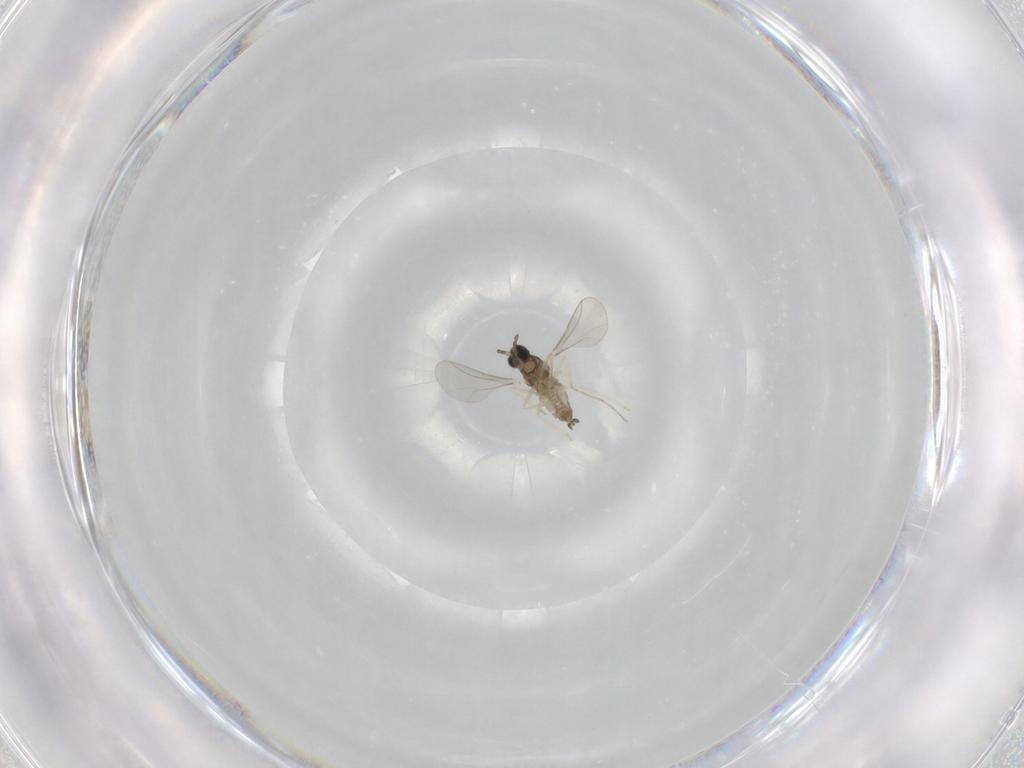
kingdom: Animalia
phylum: Arthropoda
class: Insecta
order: Diptera
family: Cecidomyiidae
